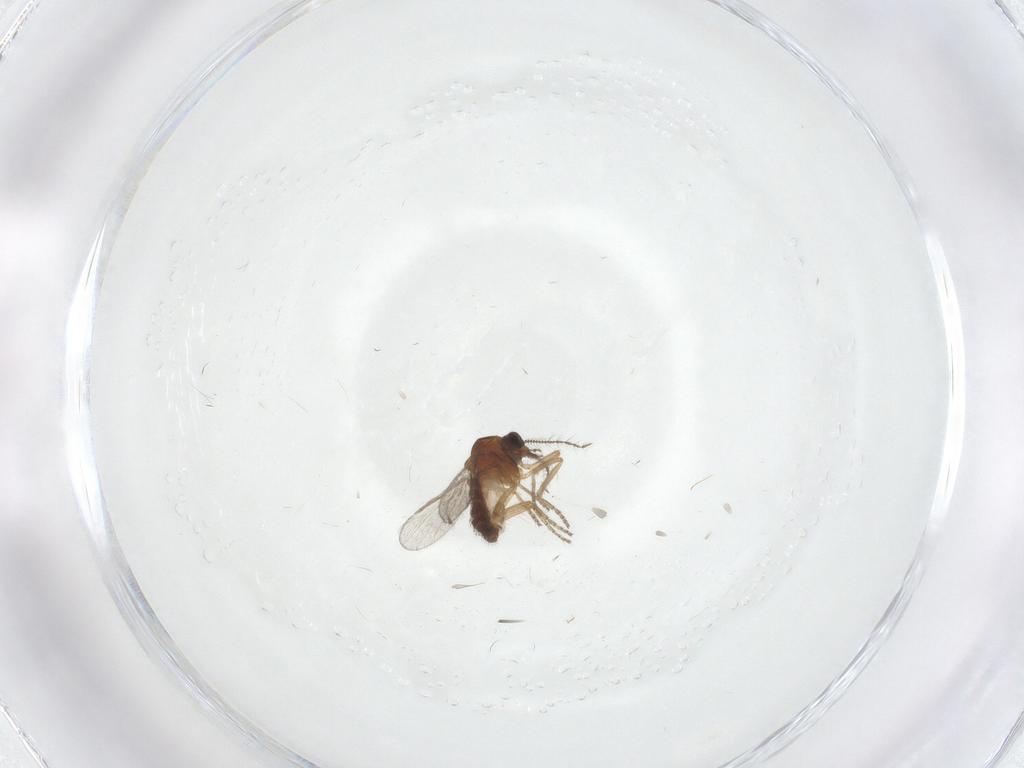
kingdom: Animalia
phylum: Arthropoda
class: Insecta
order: Diptera
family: Ceratopogonidae
